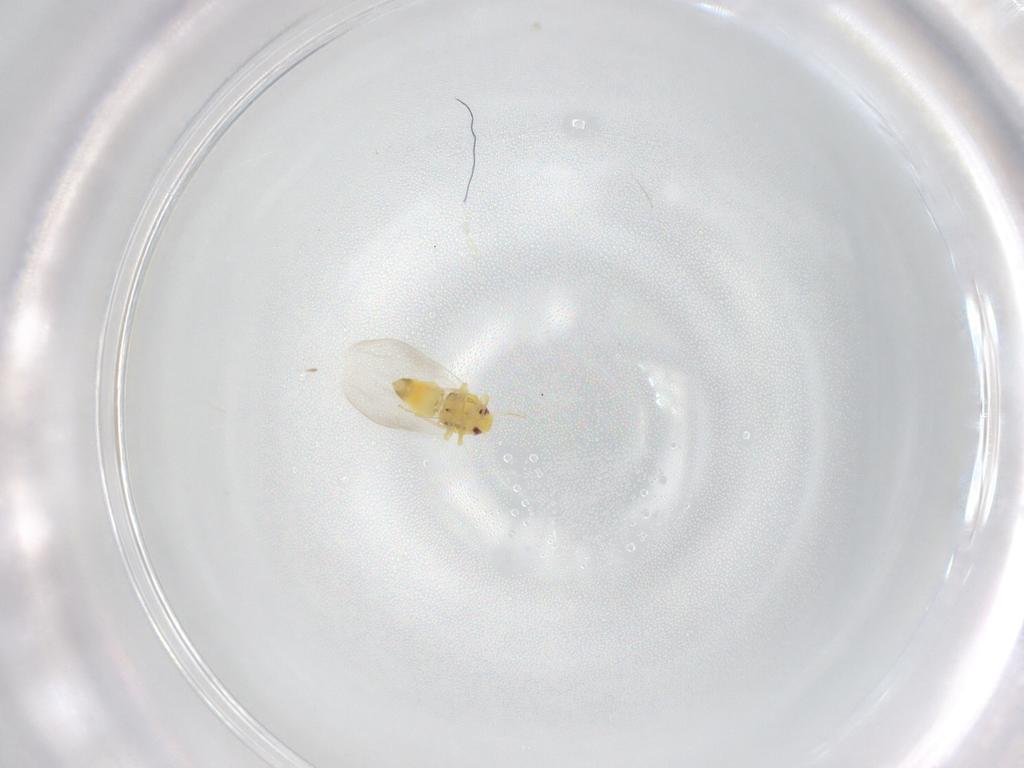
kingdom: Animalia
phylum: Arthropoda
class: Insecta
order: Hemiptera
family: Aleyrodidae
